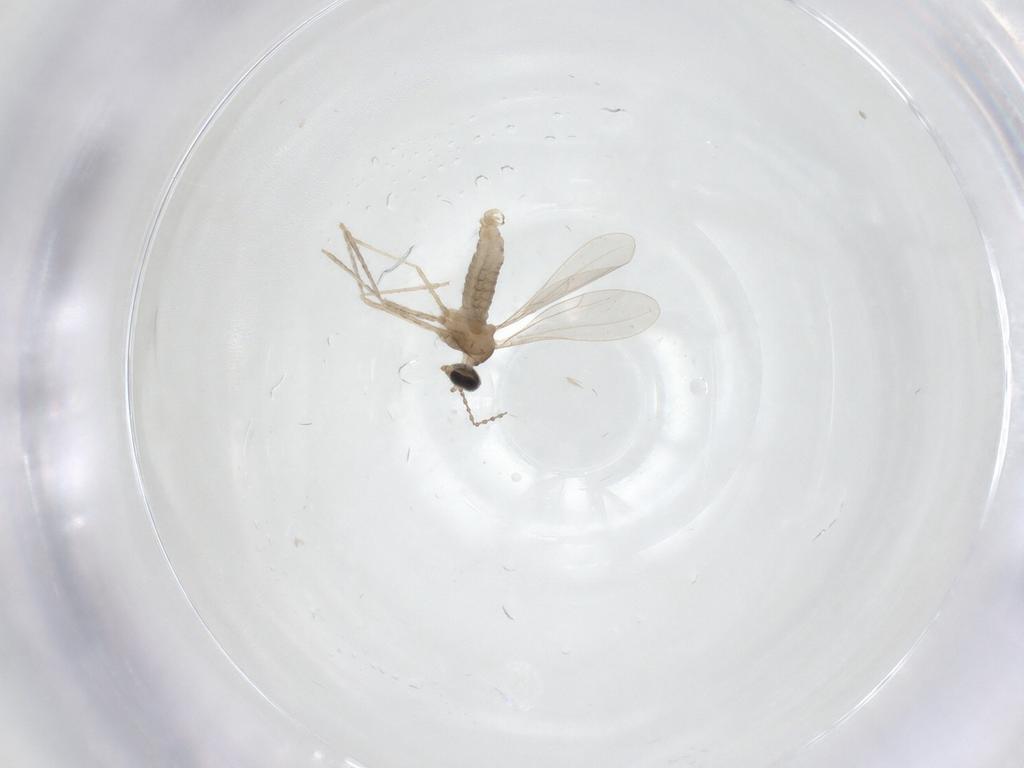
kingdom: Animalia
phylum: Arthropoda
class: Insecta
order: Diptera
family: Cecidomyiidae
